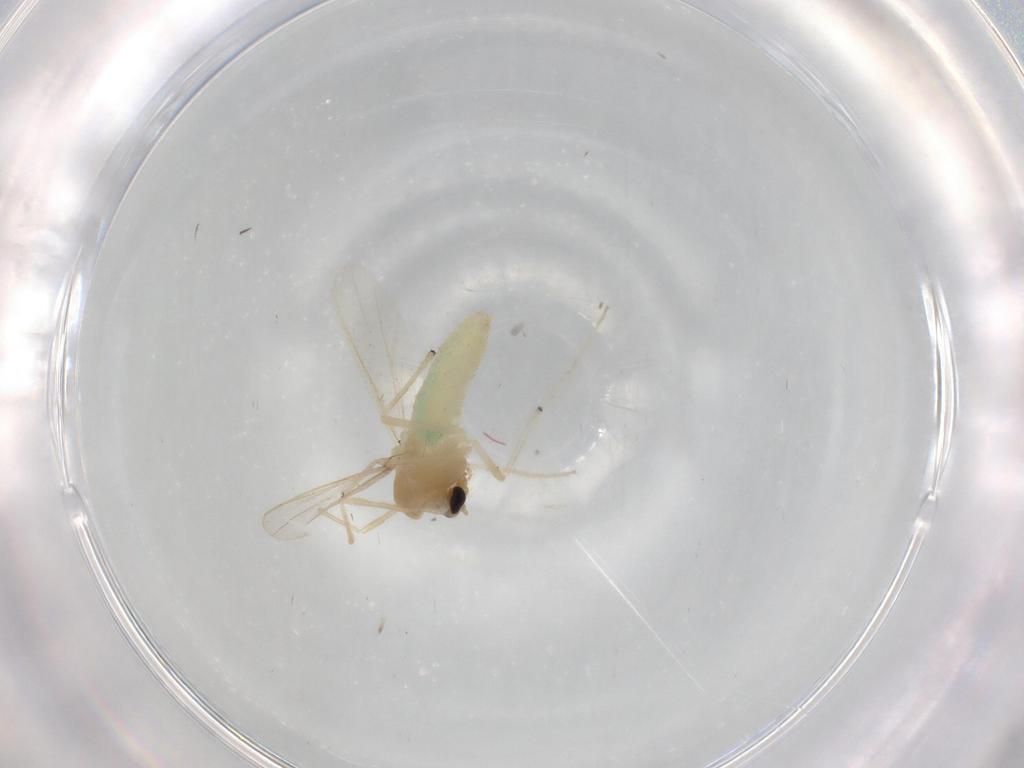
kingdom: Animalia
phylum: Arthropoda
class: Insecta
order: Diptera
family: Chironomidae
